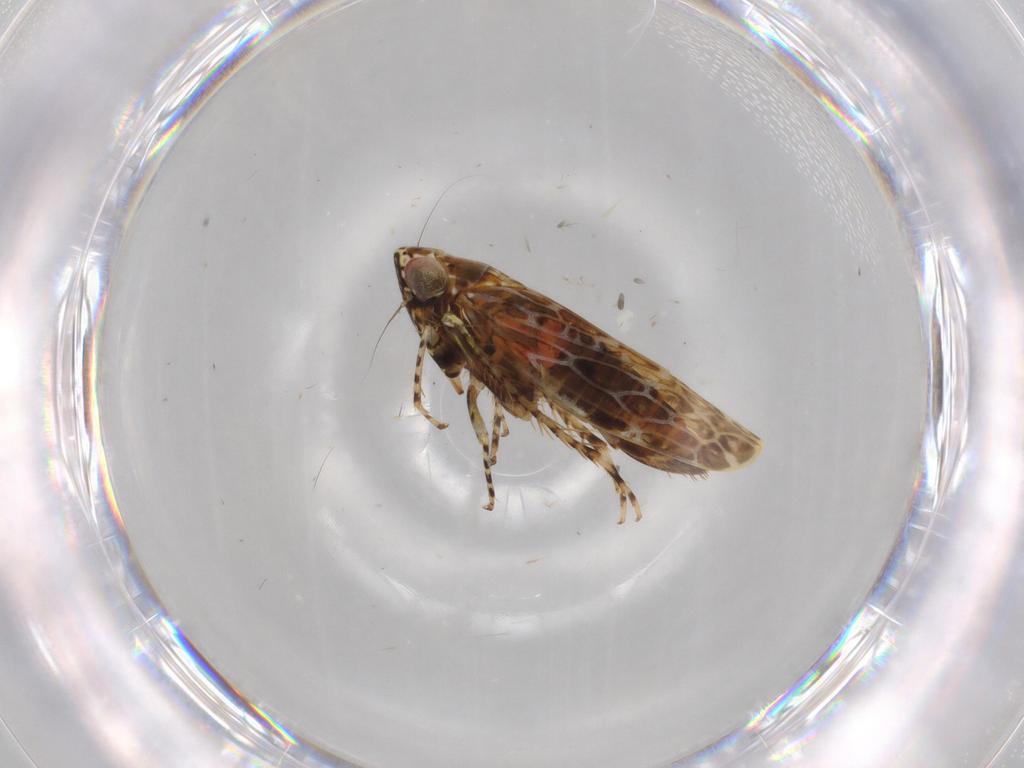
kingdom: Animalia
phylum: Arthropoda
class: Insecta
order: Hemiptera
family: Cicadellidae
